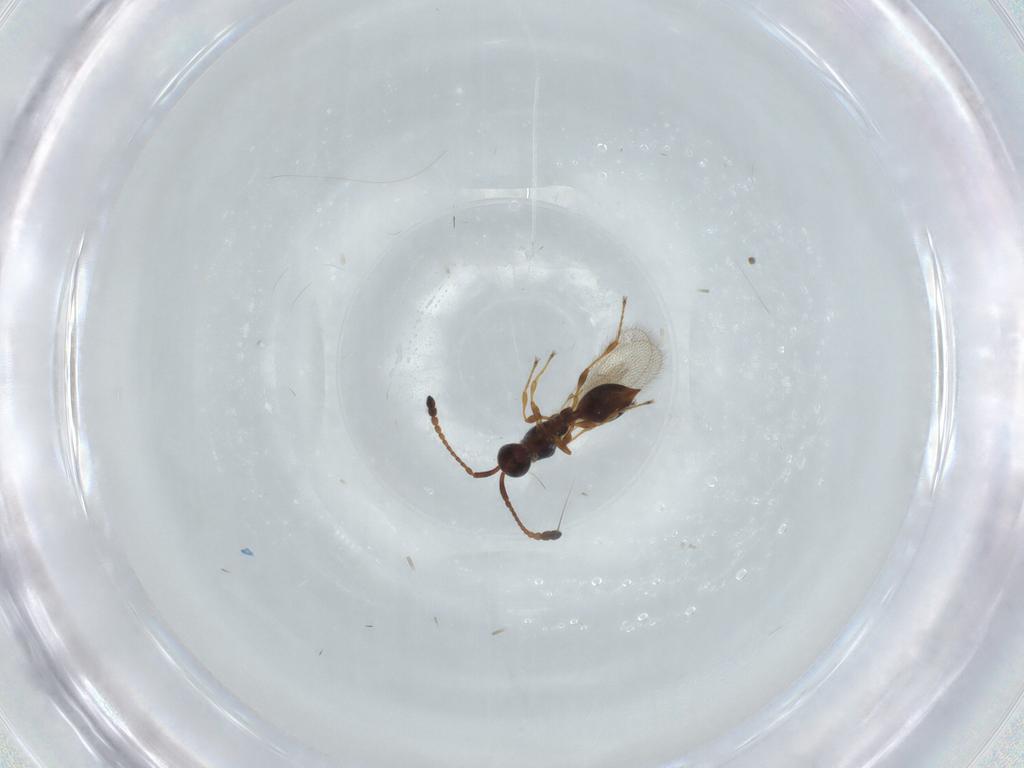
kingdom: Animalia
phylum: Arthropoda
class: Insecta
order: Hymenoptera
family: Diapriidae
